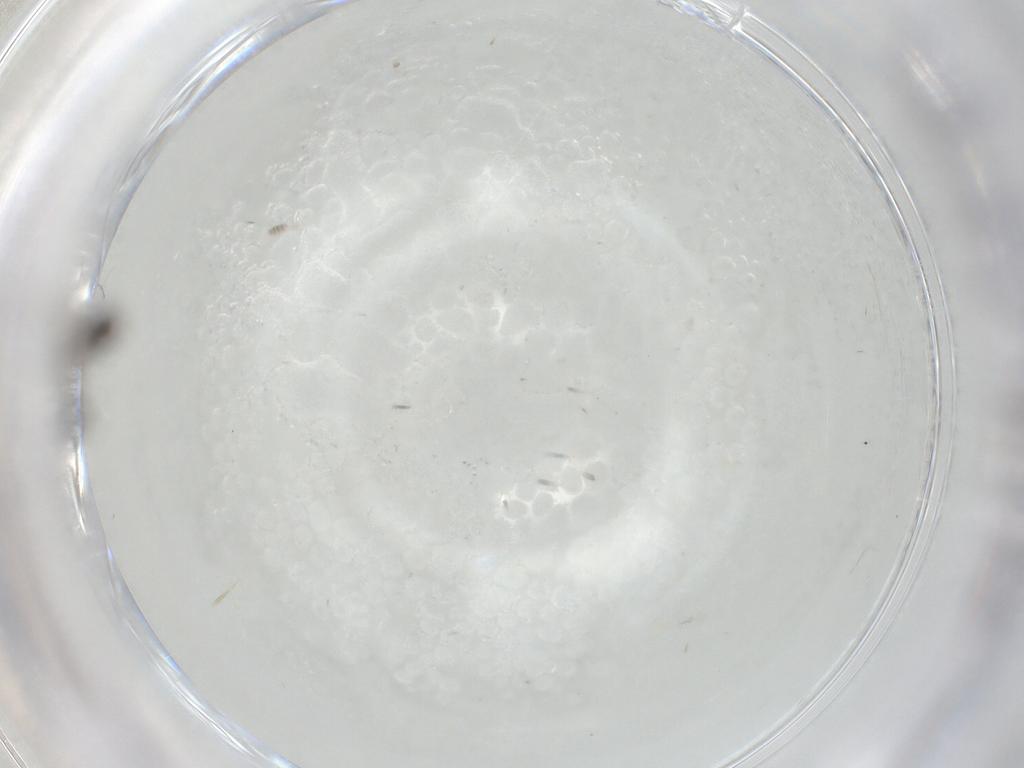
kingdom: Animalia
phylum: Arthropoda
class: Insecta
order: Diptera
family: Phoridae
